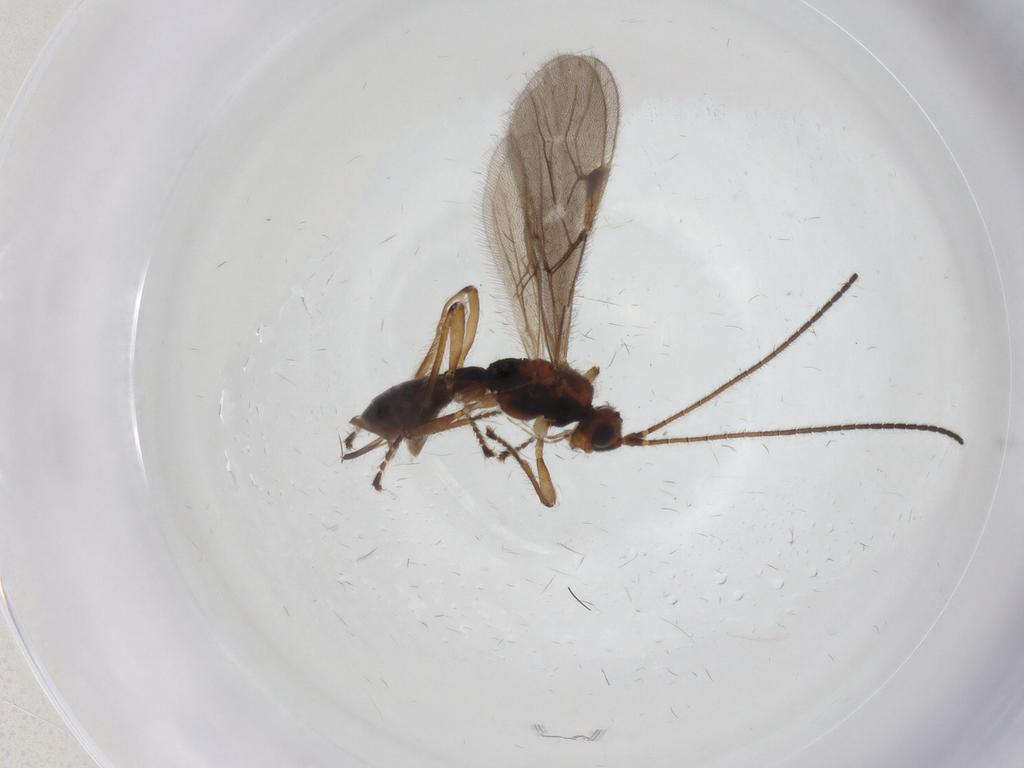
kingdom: Animalia
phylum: Arthropoda
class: Insecta
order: Hymenoptera
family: Braconidae
